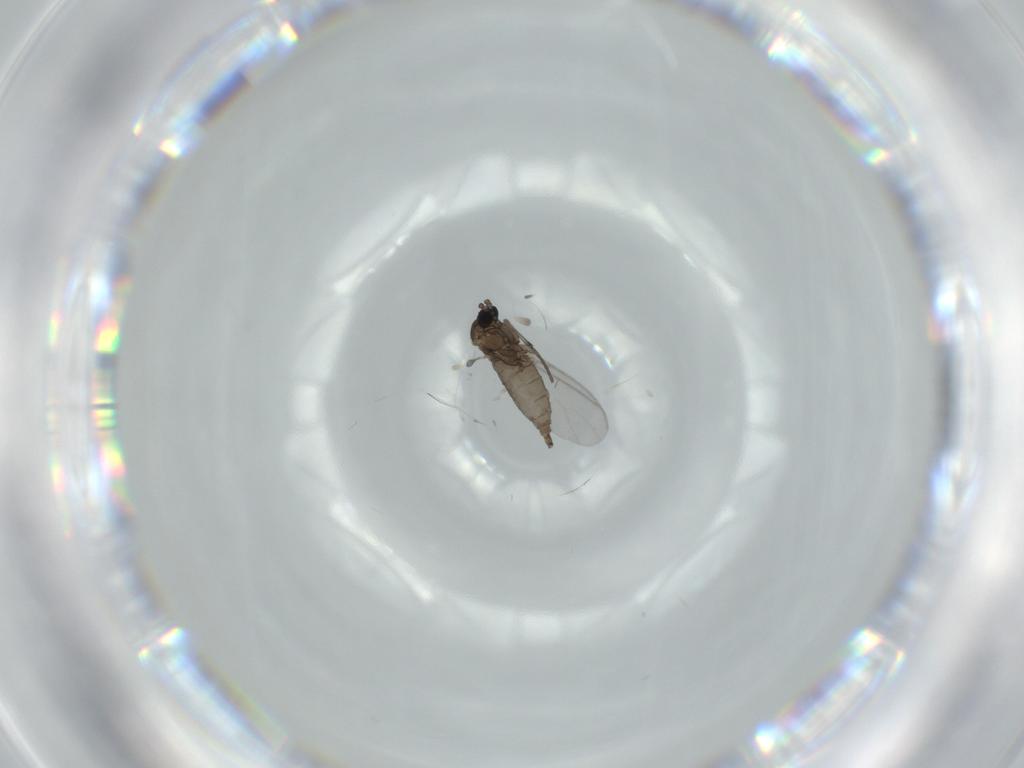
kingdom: Animalia
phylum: Arthropoda
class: Insecta
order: Diptera
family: Sciaridae
